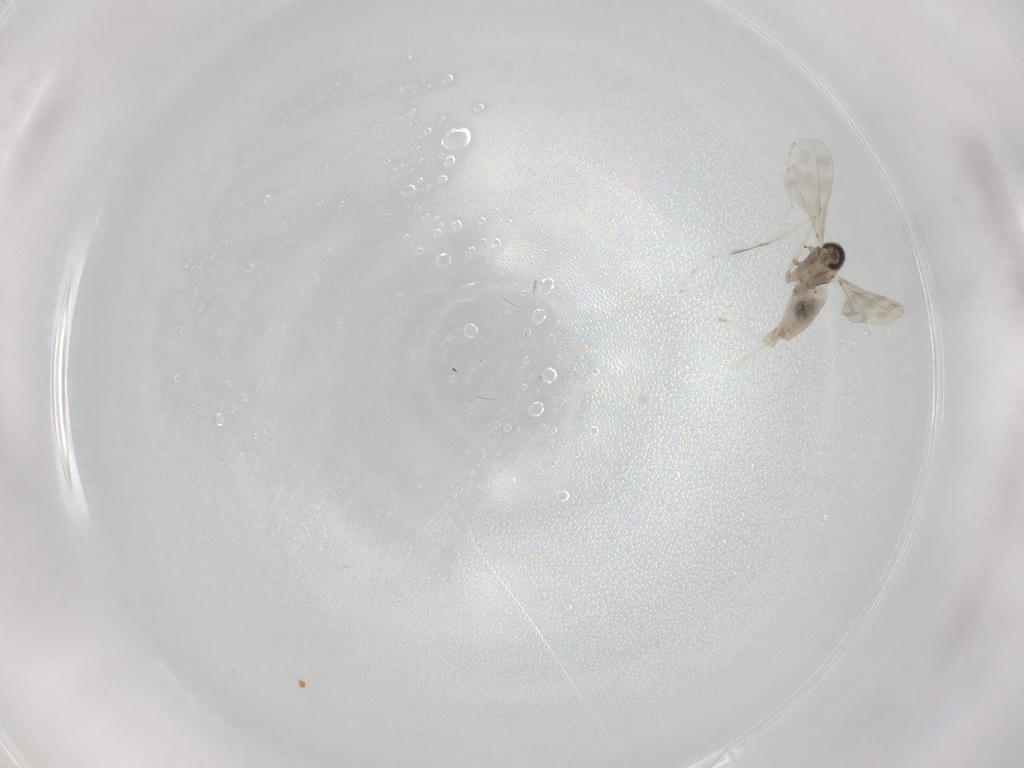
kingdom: Animalia
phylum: Arthropoda
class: Insecta
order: Diptera
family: Cecidomyiidae
